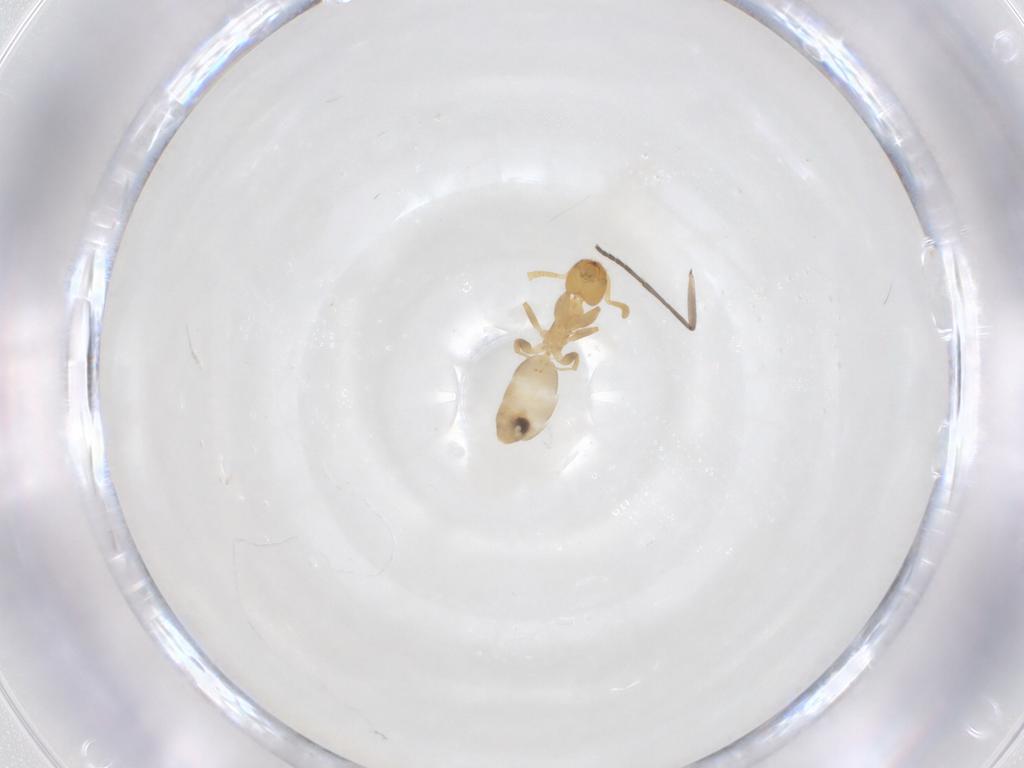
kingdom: Animalia
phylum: Arthropoda
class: Insecta
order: Hymenoptera
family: Formicidae
